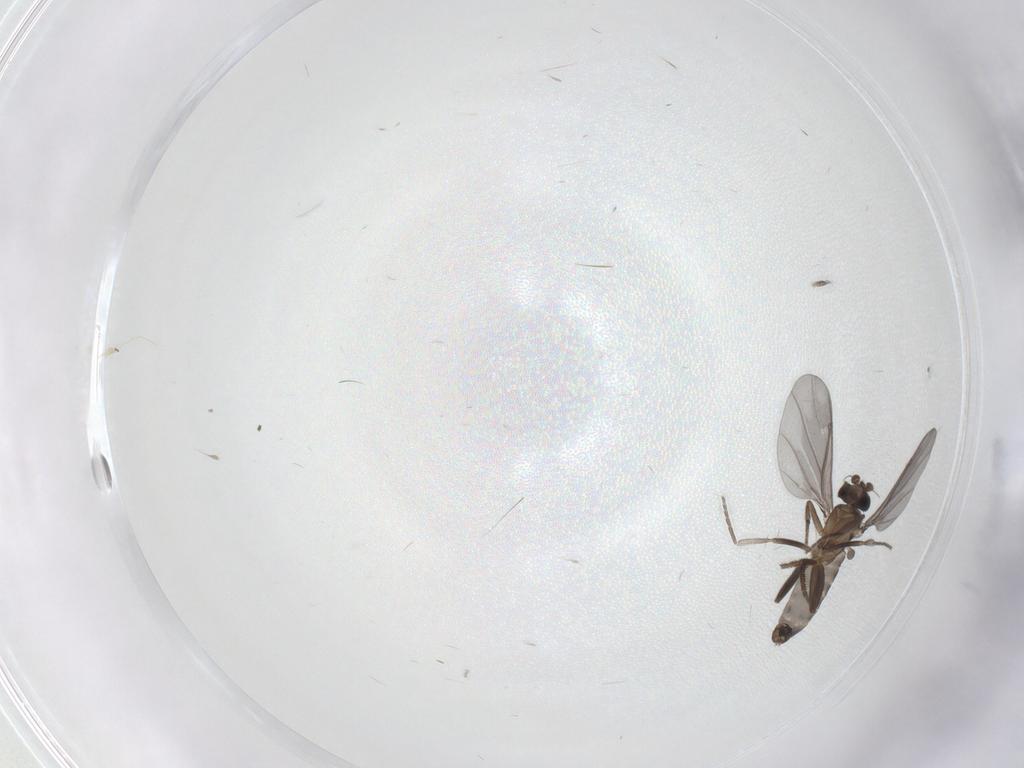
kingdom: Animalia
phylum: Arthropoda
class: Insecta
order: Diptera
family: Phoridae
